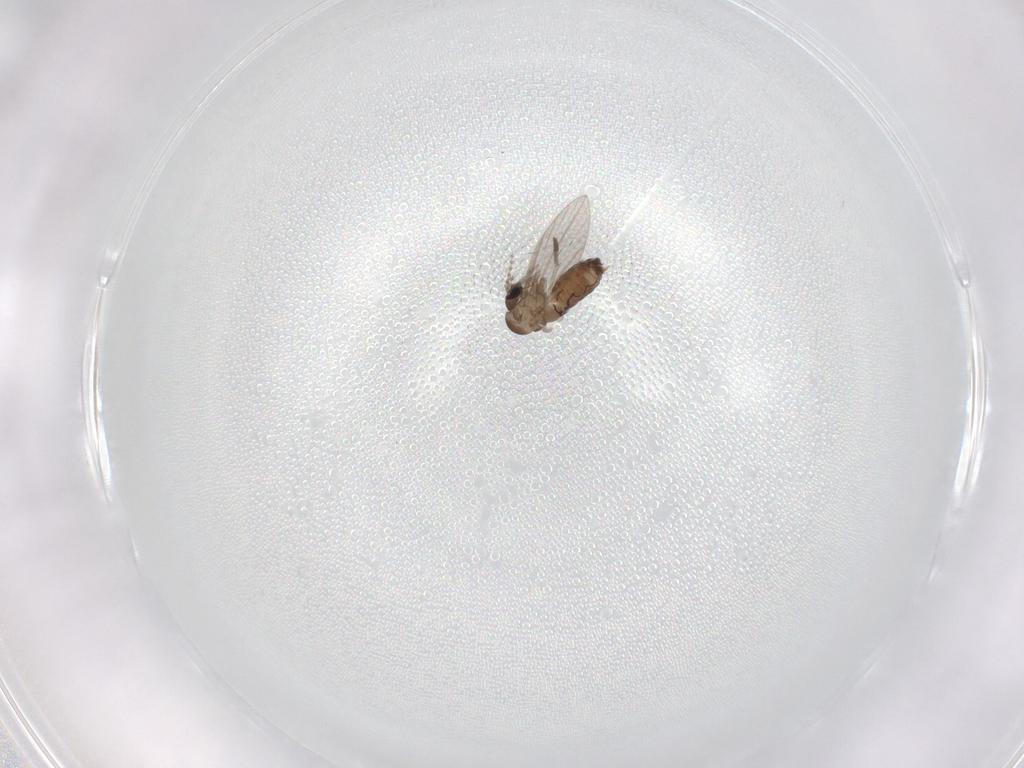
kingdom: Animalia
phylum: Arthropoda
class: Insecta
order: Diptera
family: Psychodidae
